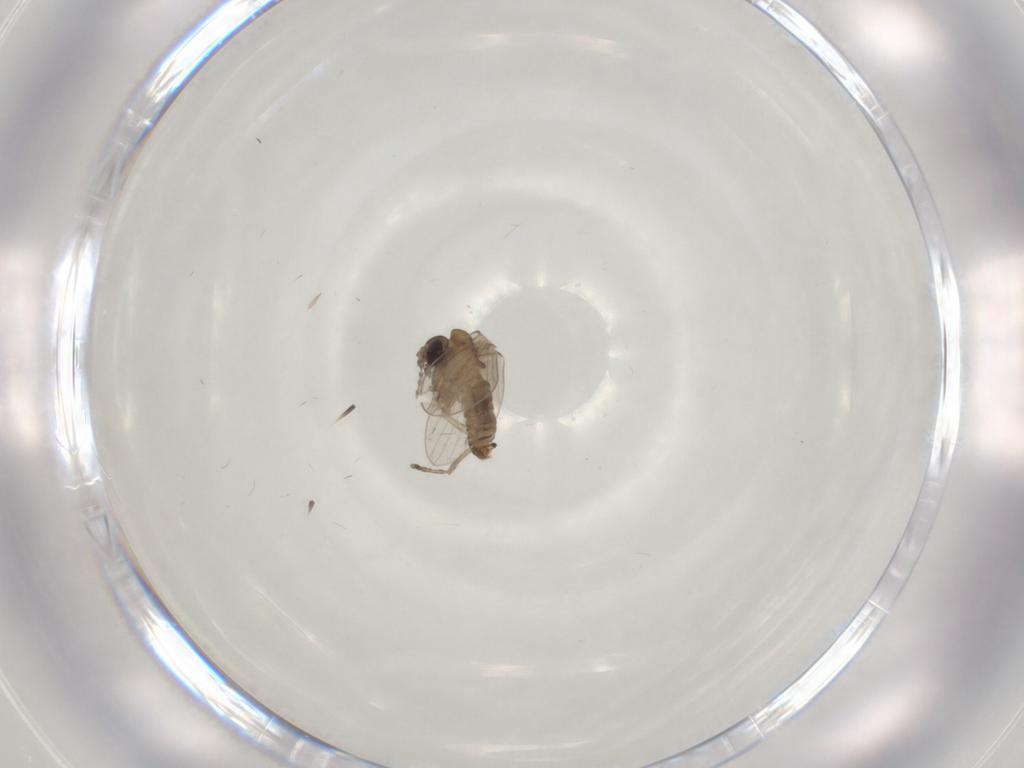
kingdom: Animalia
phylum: Arthropoda
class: Insecta
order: Diptera
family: Psychodidae
